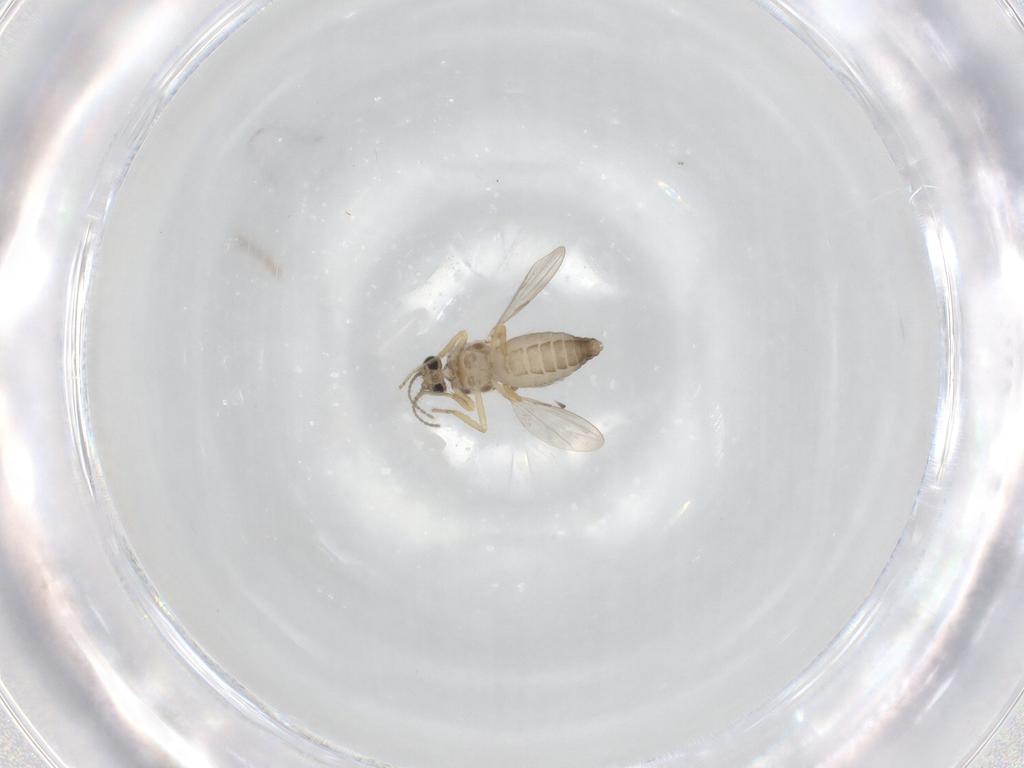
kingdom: Animalia
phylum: Arthropoda
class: Insecta
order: Diptera
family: Ceratopogonidae
